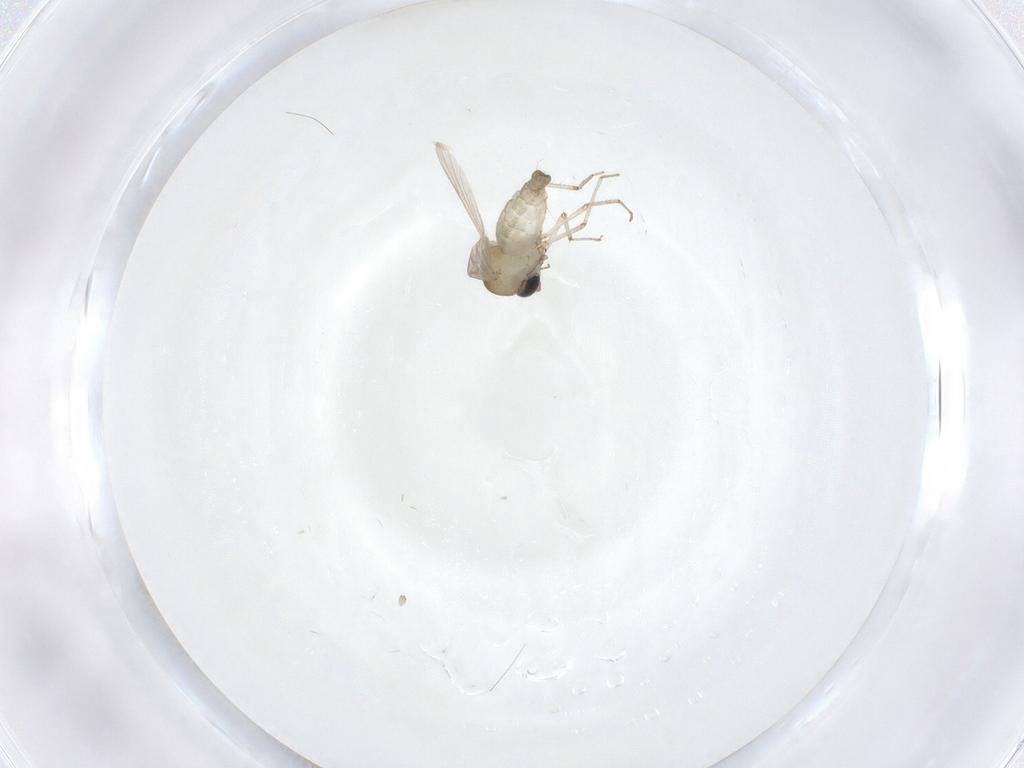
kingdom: Animalia
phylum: Arthropoda
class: Insecta
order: Diptera
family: Ceratopogonidae
